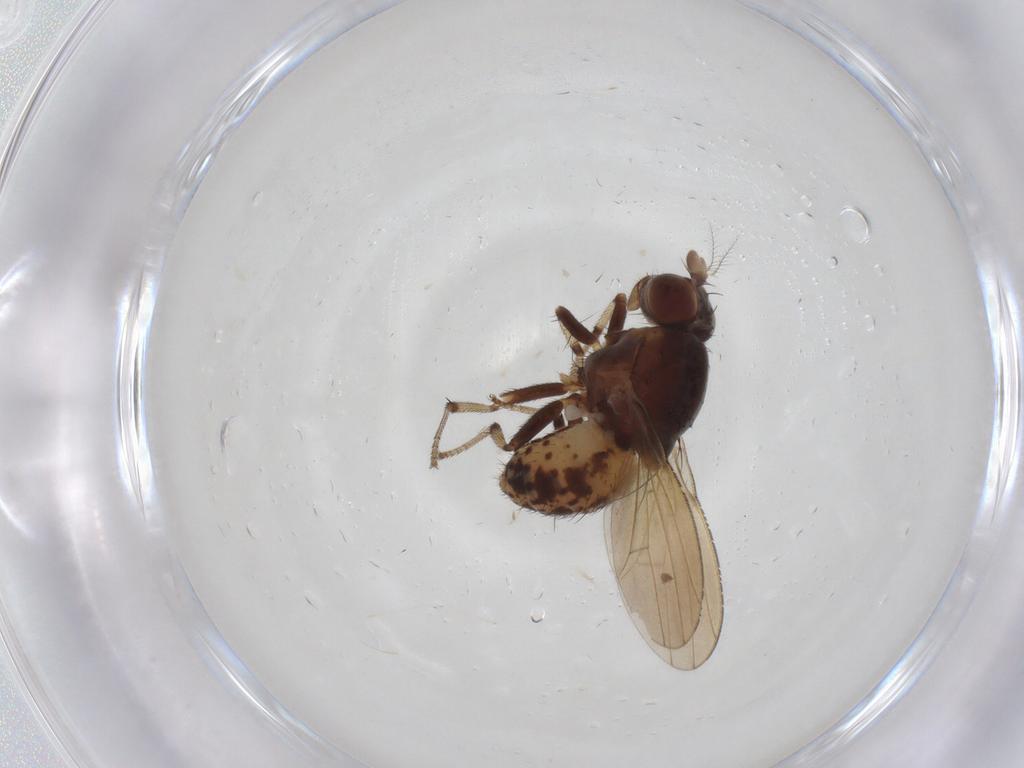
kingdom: Animalia
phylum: Arthropoda
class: Insecta
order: Diptera
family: Cecidomyiidae
